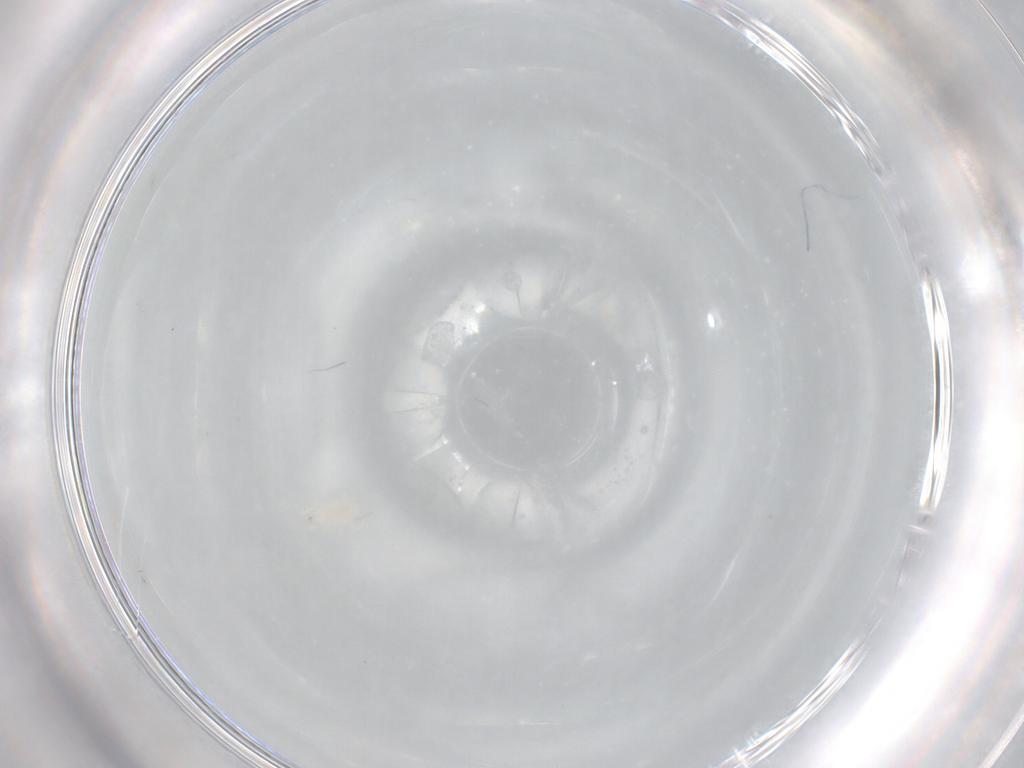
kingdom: Animalia
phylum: Arthropoda
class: Arachnida
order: Araneae
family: Clubionidae
